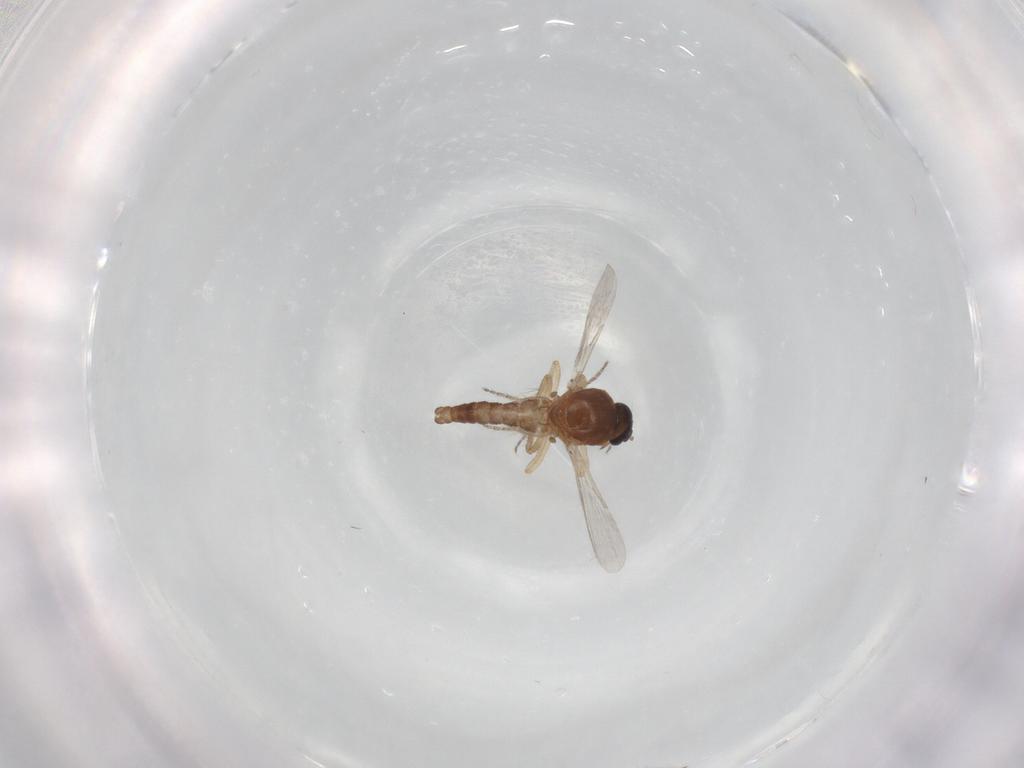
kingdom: Animalia
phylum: Arthropoda
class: Insecta
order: Diptera
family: Ceratopogonidae
